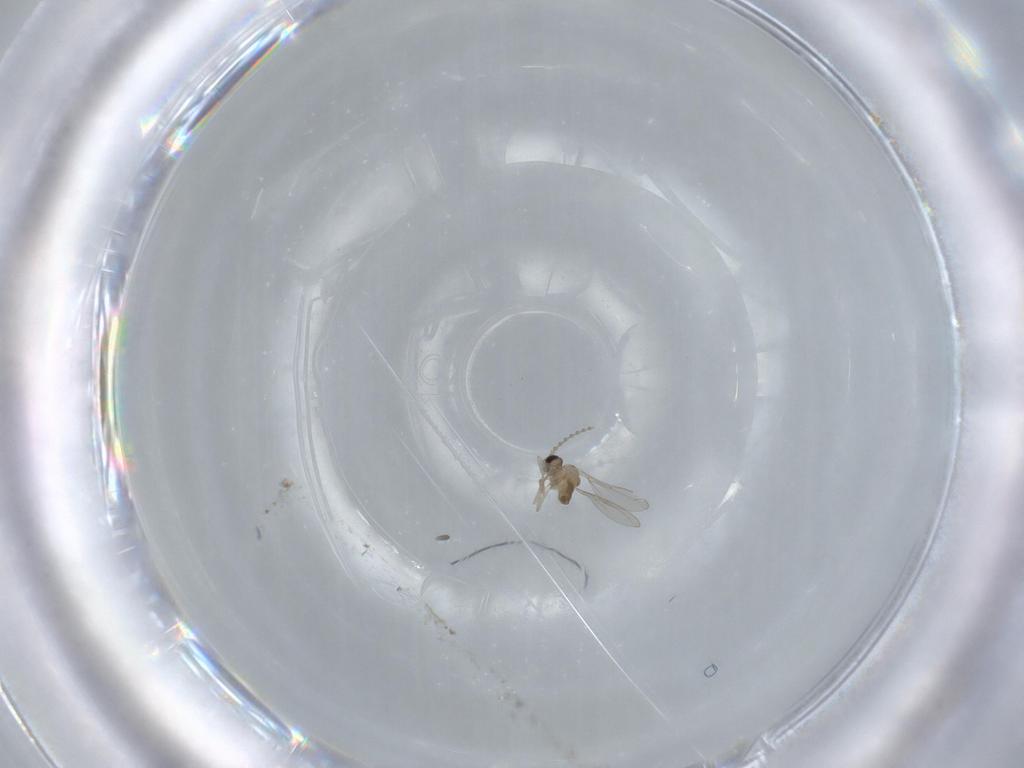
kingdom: Animalia
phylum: Arthropoda
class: Insecta
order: Diptera
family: Cecidomyiidae
